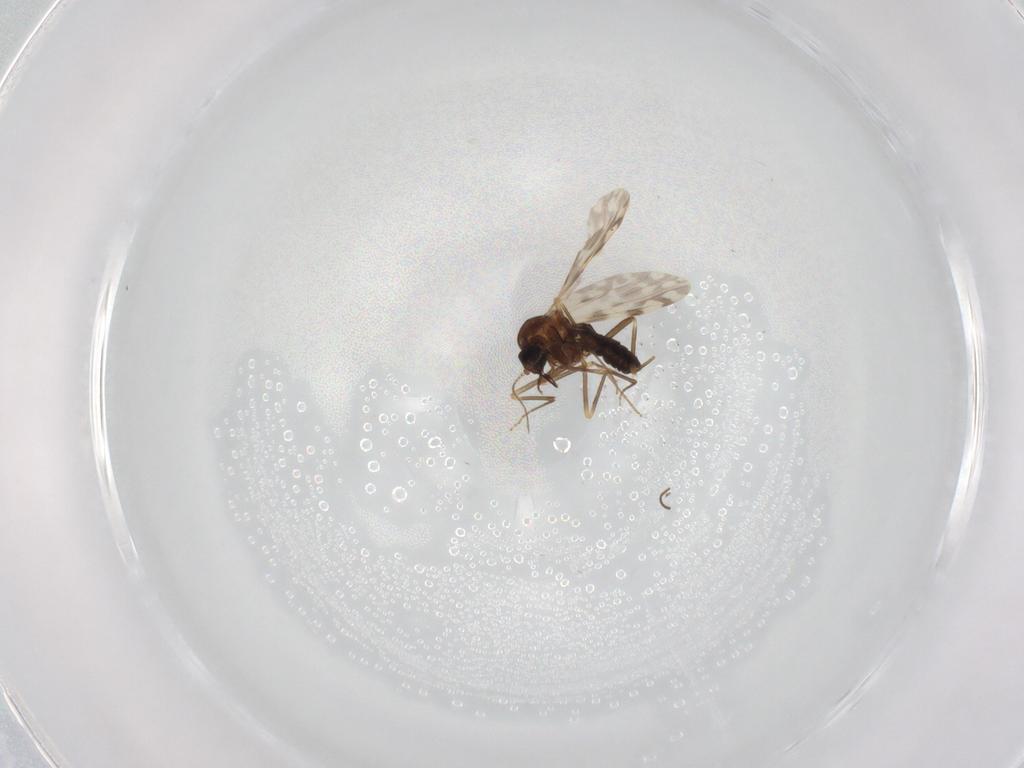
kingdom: Animalia
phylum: Arthropoda
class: Insecta
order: Diptera
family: Ceratopogonidae
